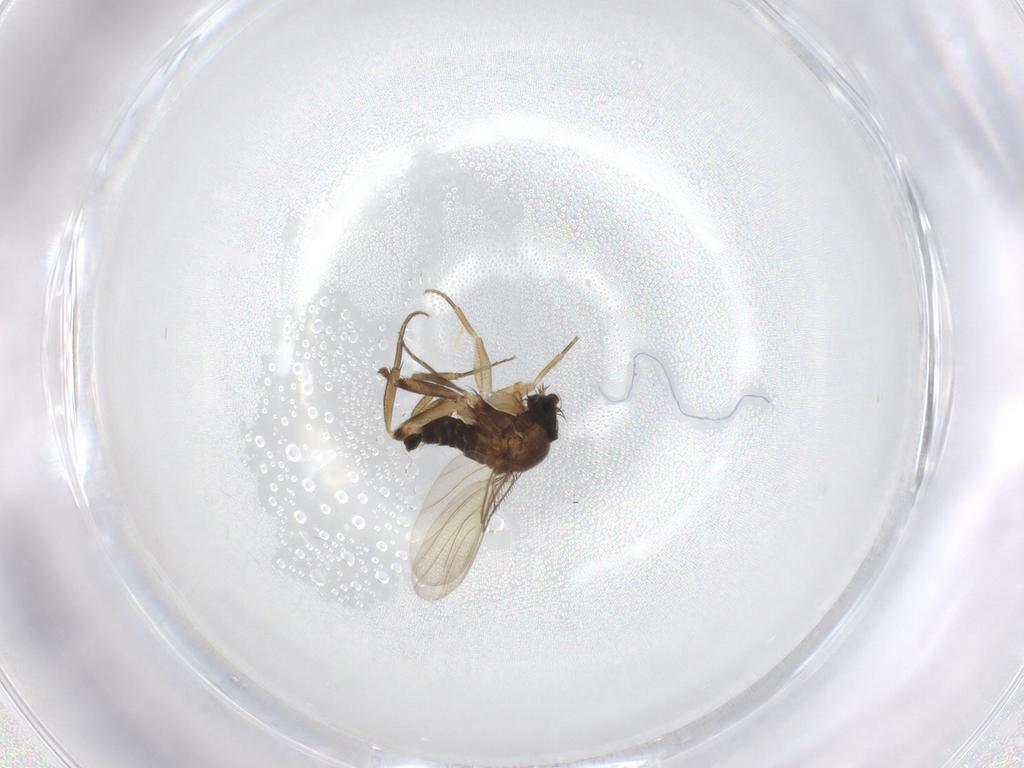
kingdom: Animalia
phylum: Arthropoda
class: Insecta
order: Diptera
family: Phoridae
